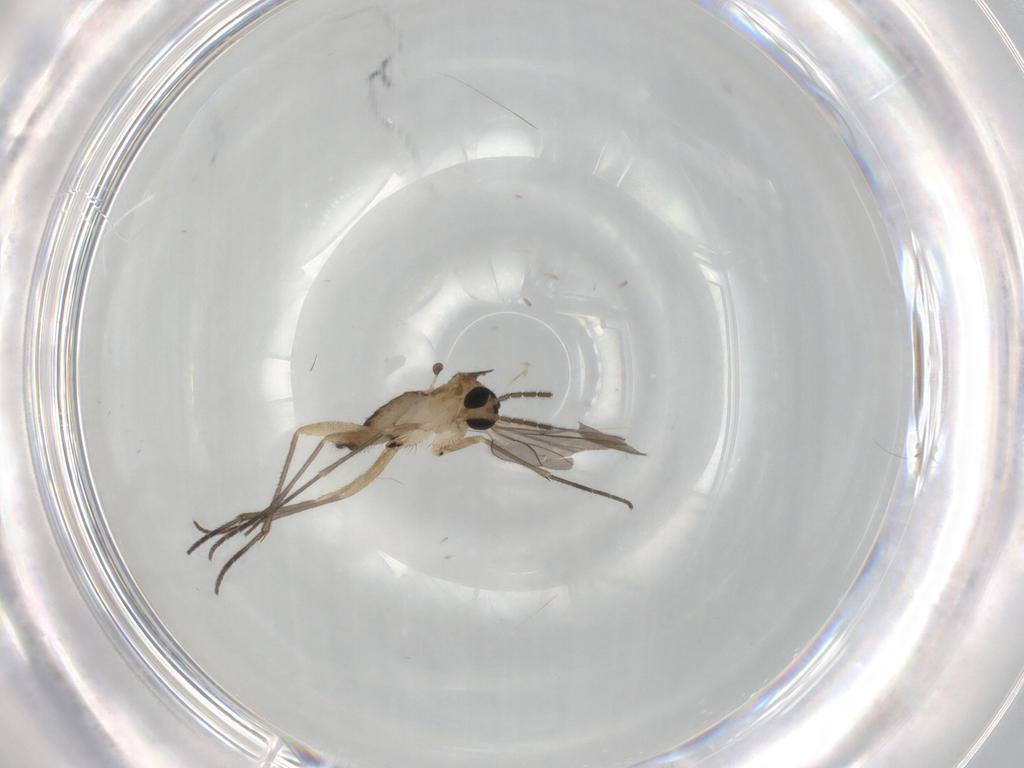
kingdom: Animalia
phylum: Arthropoda
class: Insecta
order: Diptera
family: Sciaridae
